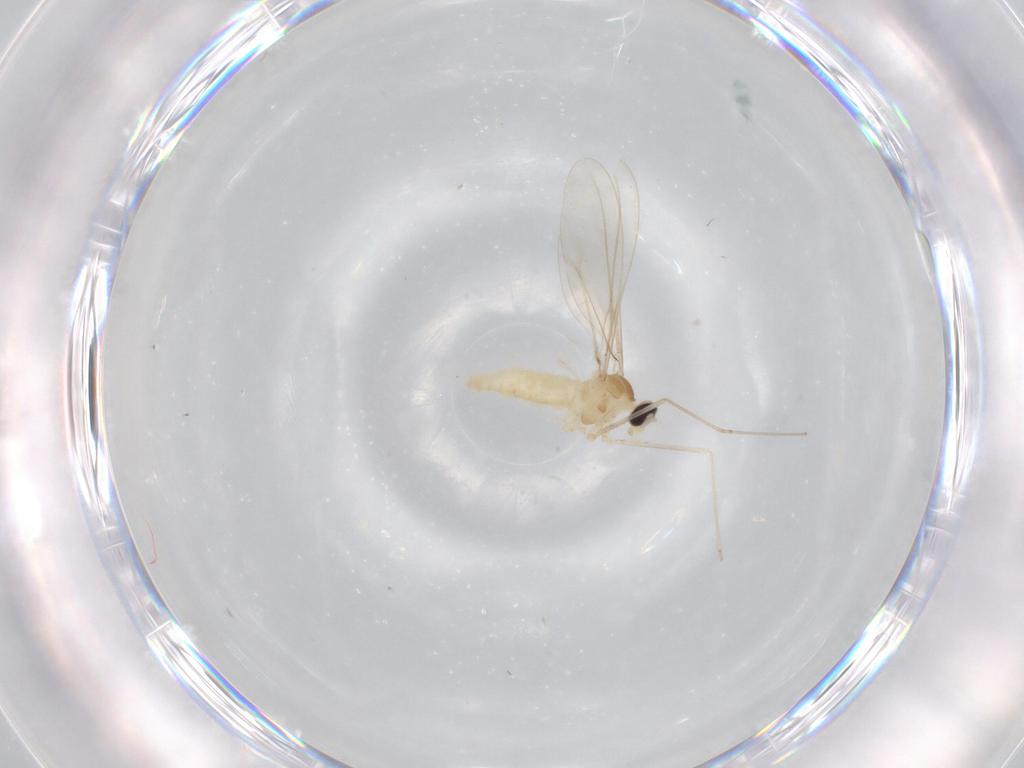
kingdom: Animalia
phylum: Arthropoda
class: Insecta
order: Diptera
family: Cecidomyiidae
